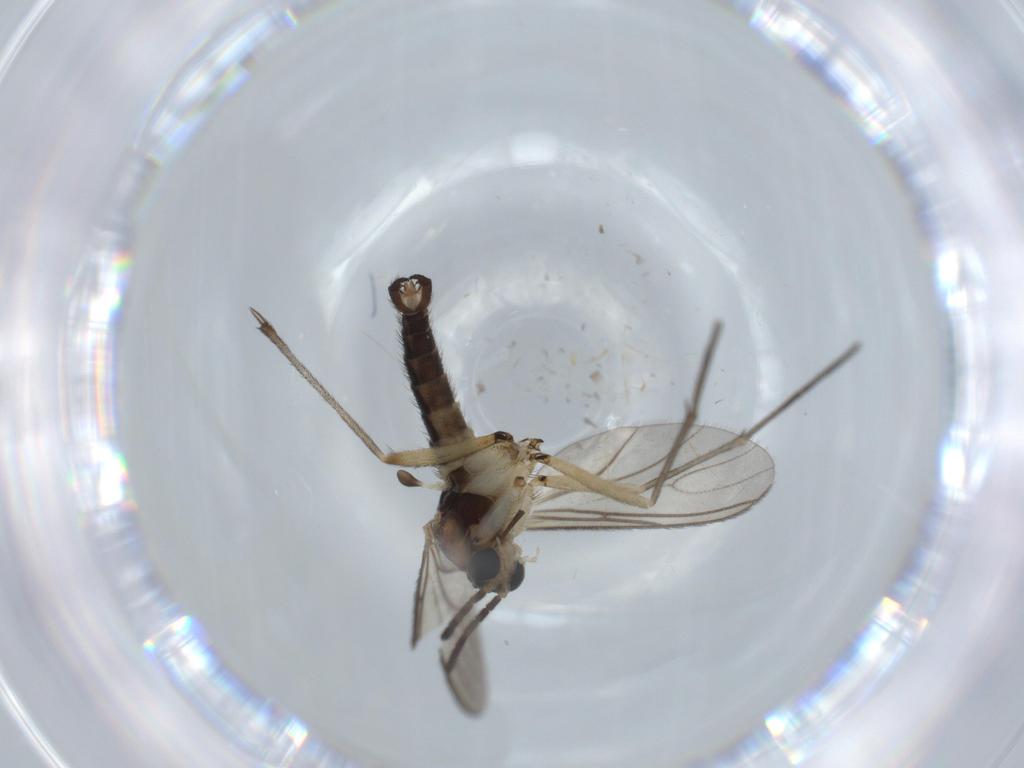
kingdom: Animalia
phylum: Arthropoda
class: Insecta
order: Diptera
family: Sciaridae
